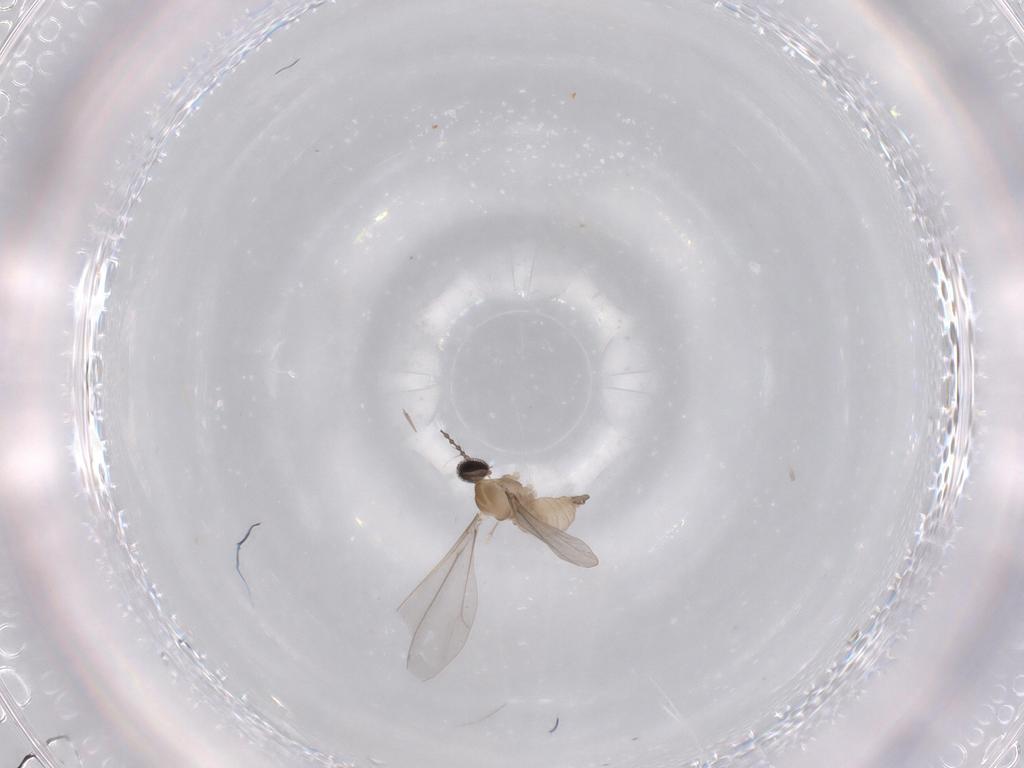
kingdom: Animalia
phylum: Arthropoda
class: Insecta
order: Diptera
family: Cecidomyiidae
